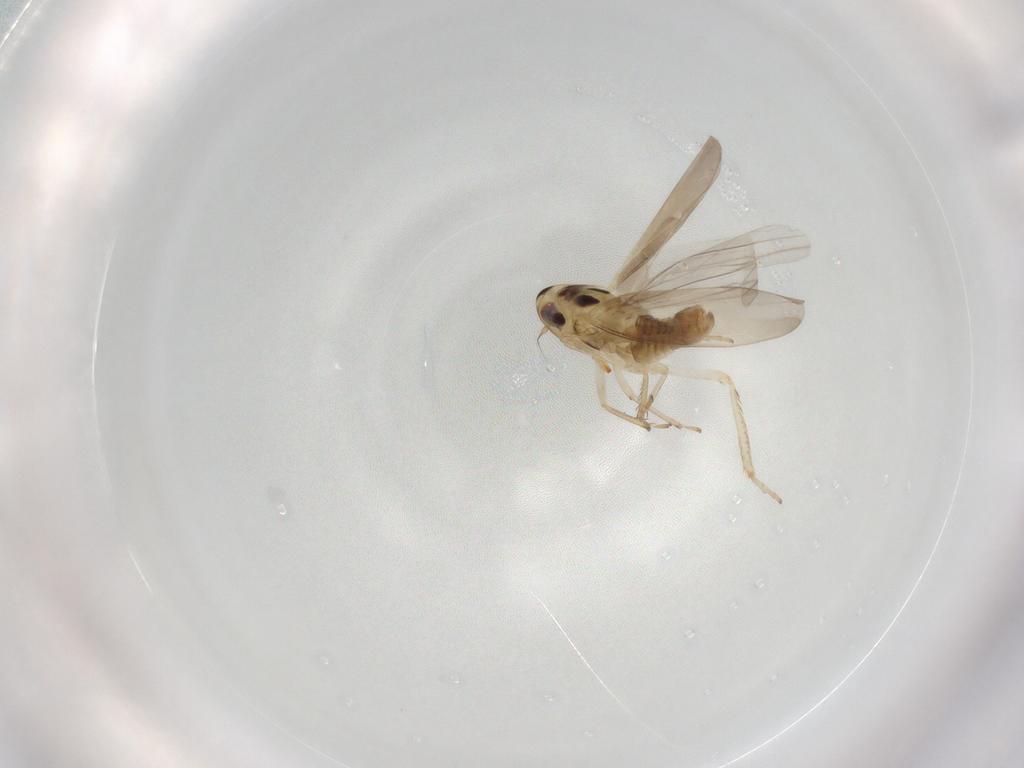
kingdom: Animalia
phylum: Arthropoda
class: Insecta
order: Hemiptera
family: Cicadellidae
